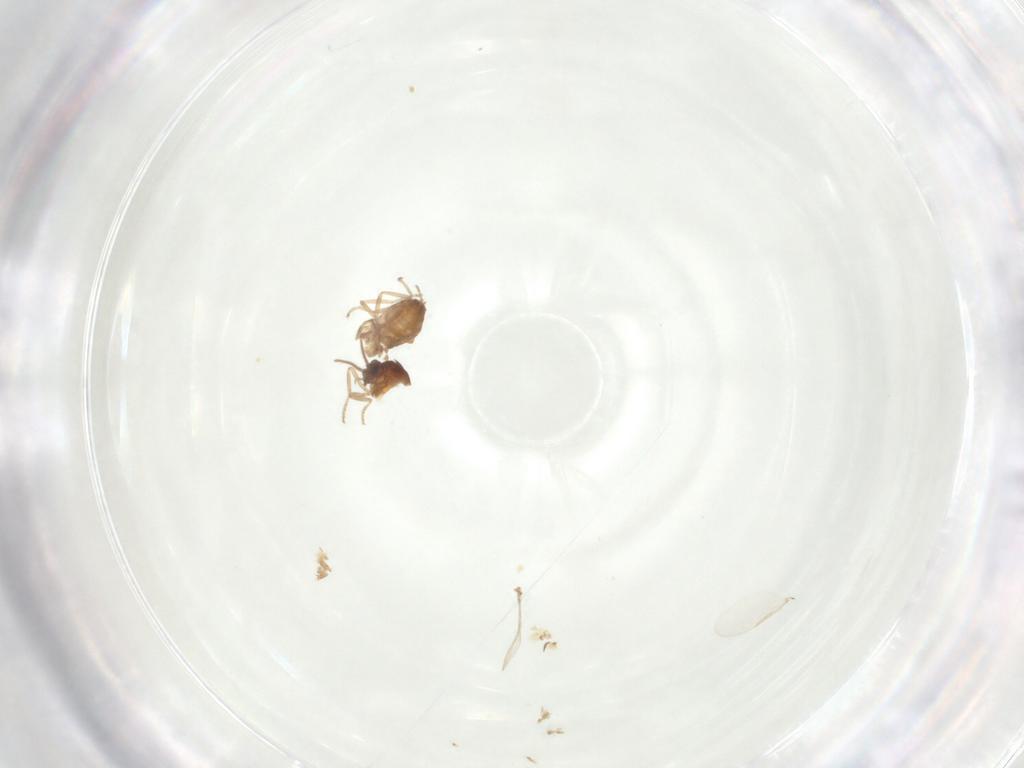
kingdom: Animalia
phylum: Arthropoda
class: Insecta
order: Diptera
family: Ceratopogonidae
